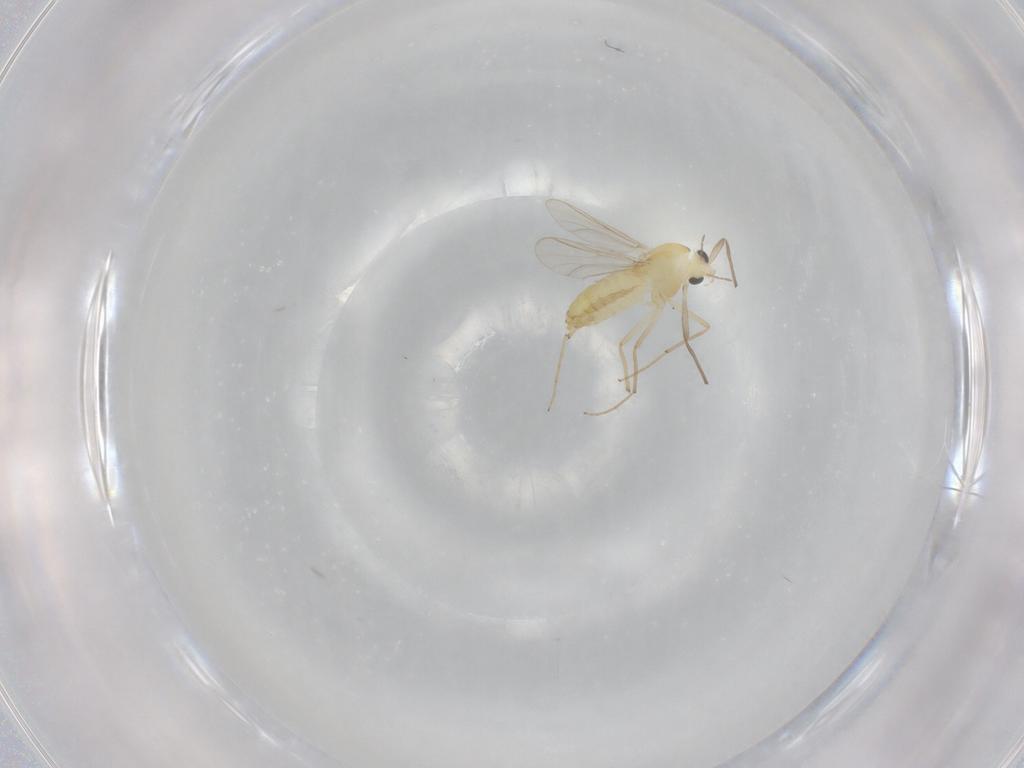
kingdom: Animalia
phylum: Arthropoda
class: Insecta
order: Diptera
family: Chironomidae
